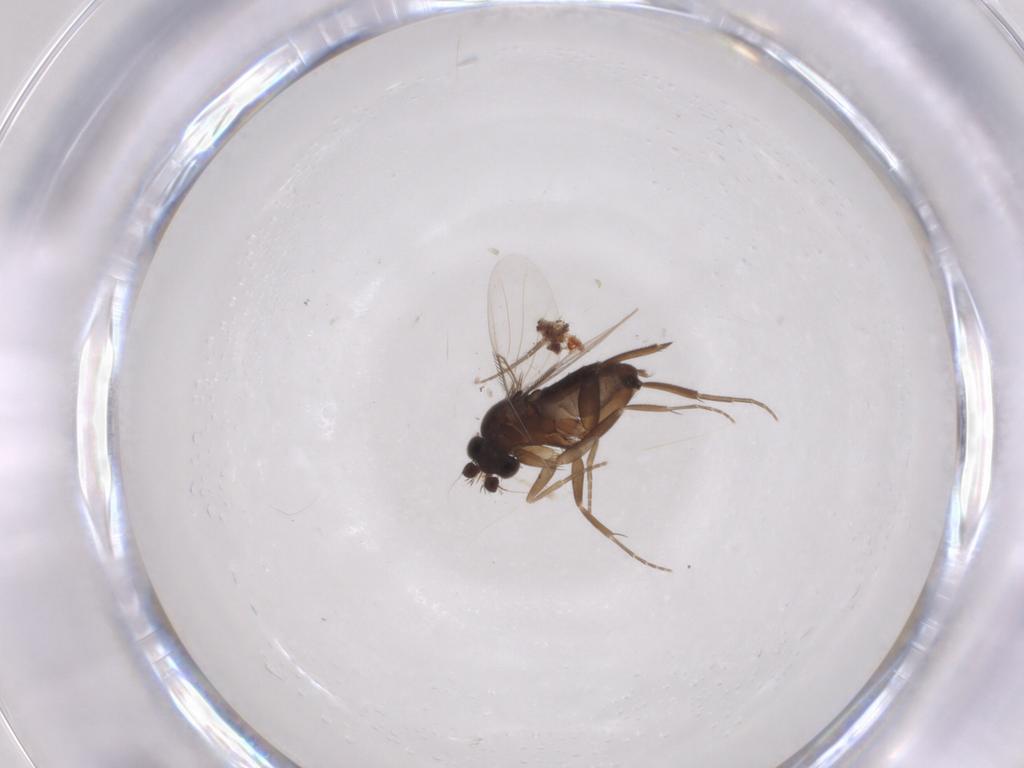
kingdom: Animalia
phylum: Arthropoda
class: Insecta
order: Diptera
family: Phoridae
